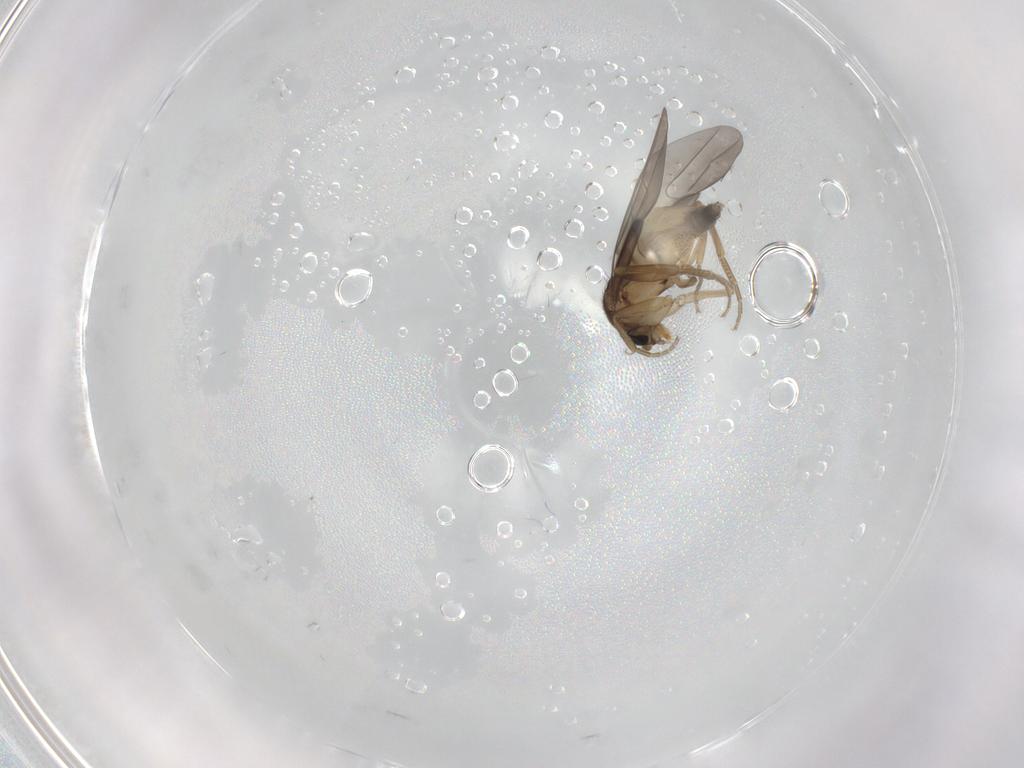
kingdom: Animalia
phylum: Arthropoda
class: Insecta
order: Diptera
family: Phoridae
